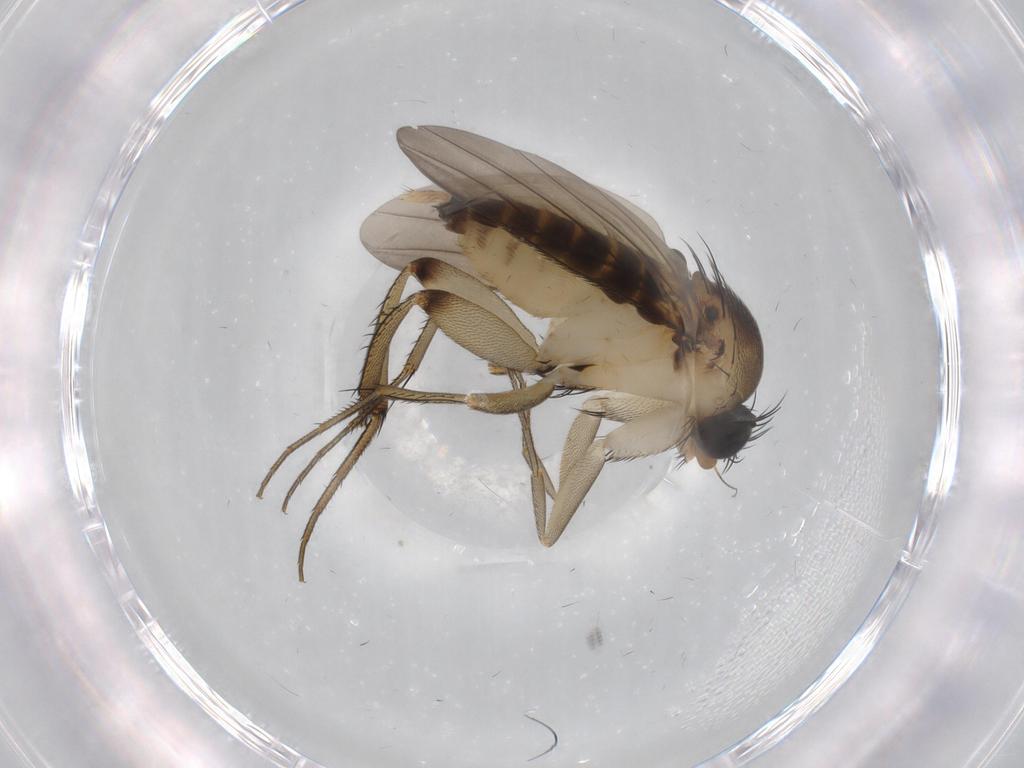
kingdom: Animalia
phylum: Arthropoda
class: Insecta
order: Diptera
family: Phoridae
